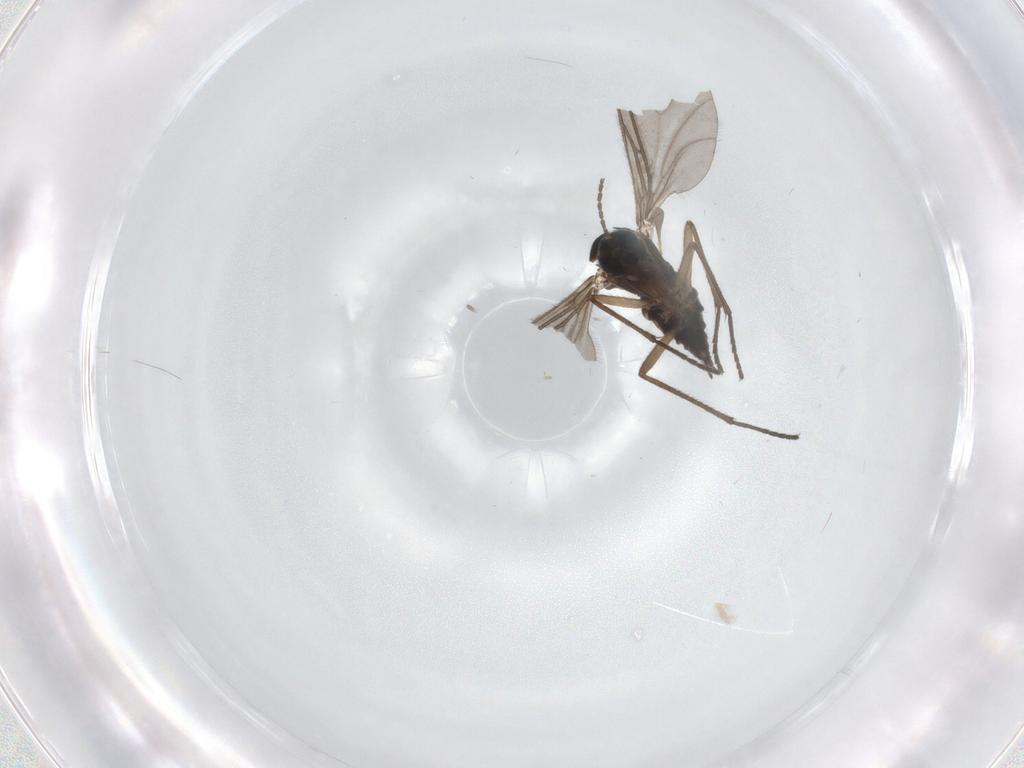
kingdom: Animalia
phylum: Arthropoda
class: Insecta
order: Diptera
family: Sciaridae
